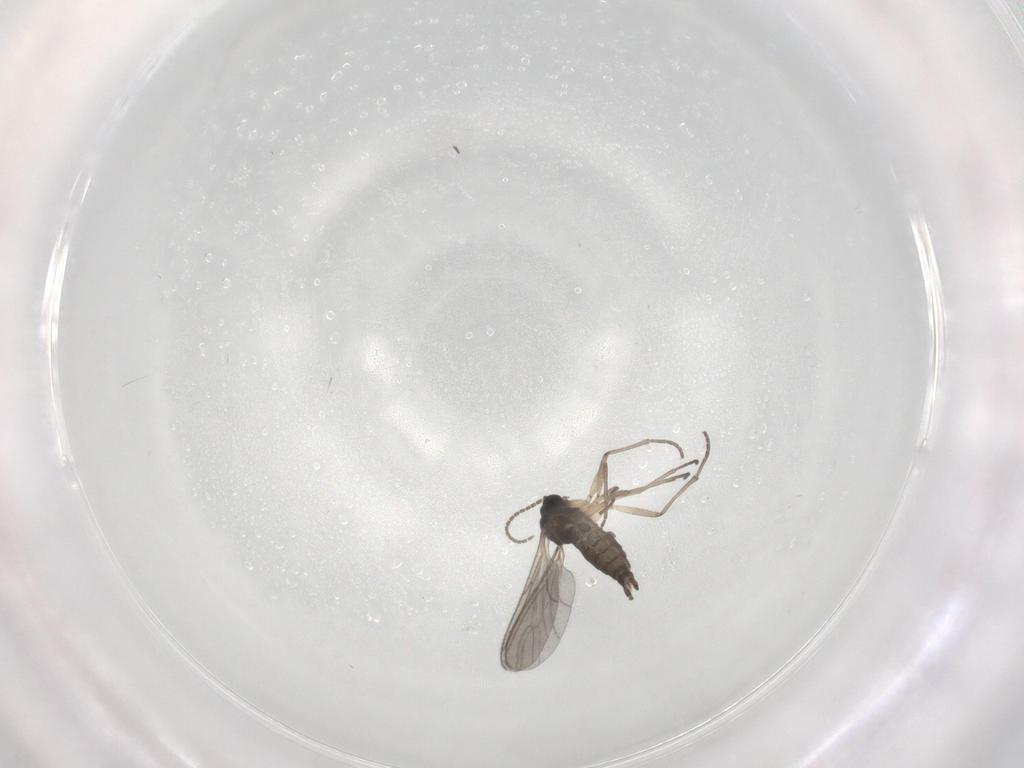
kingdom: Animalia
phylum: Arthropoda
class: Insecta
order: Diptera
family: Sciaridae
